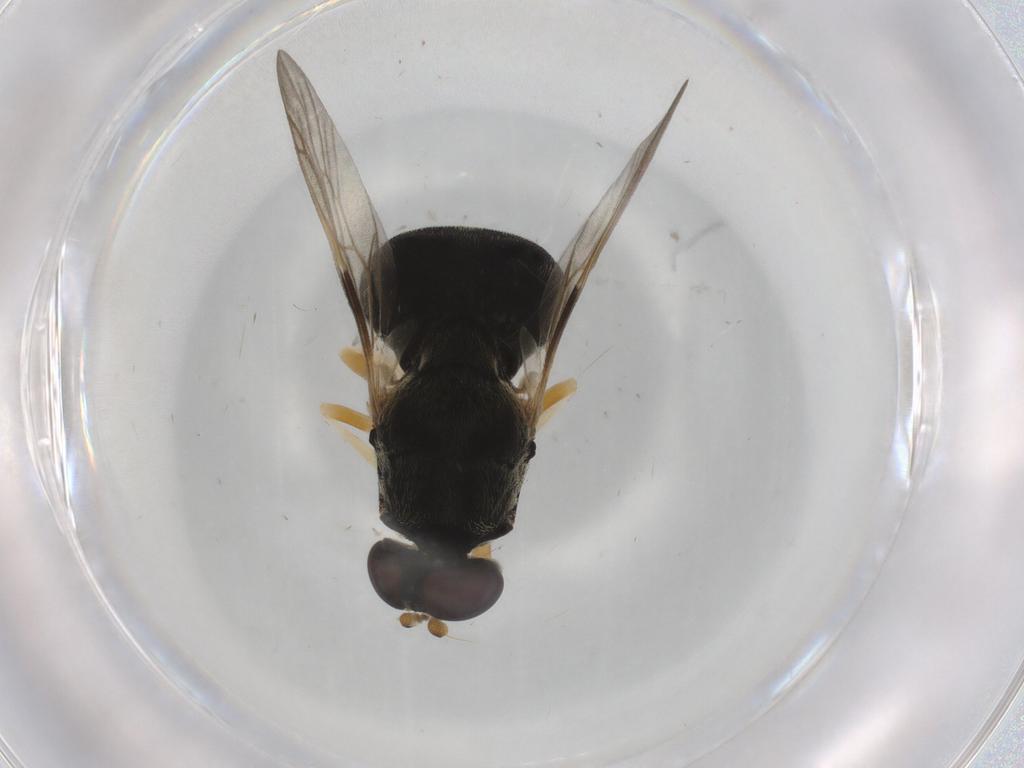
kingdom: Animalia
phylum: Arthropoda
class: Insecta
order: Diptera
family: Stratiomyidae
